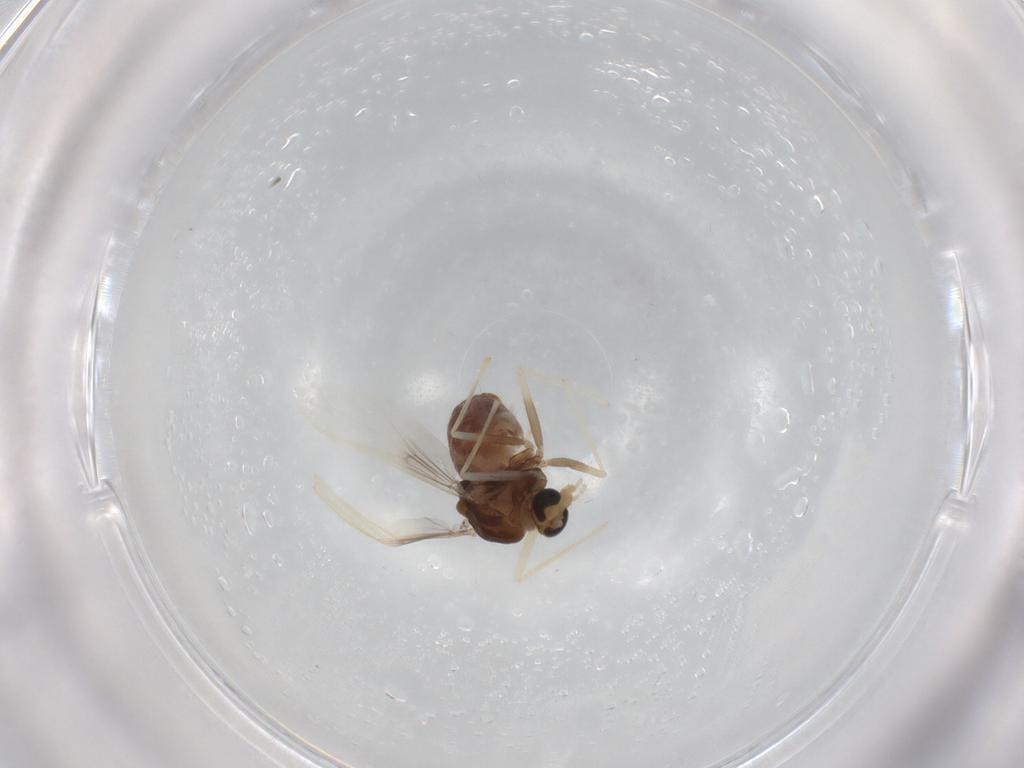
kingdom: Animalia
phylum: Arthropoda
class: Insecta
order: Diptera
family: Chironomidae
